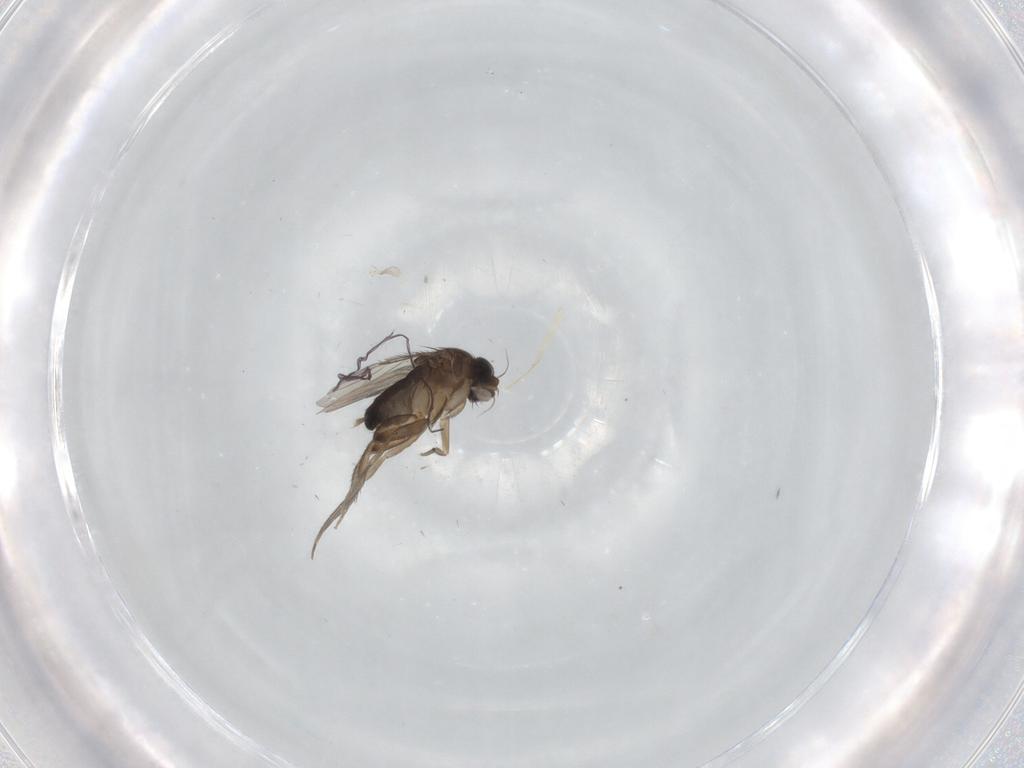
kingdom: Animalia
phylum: Arthropoda
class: Insecta
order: Diptera
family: Phoridae
